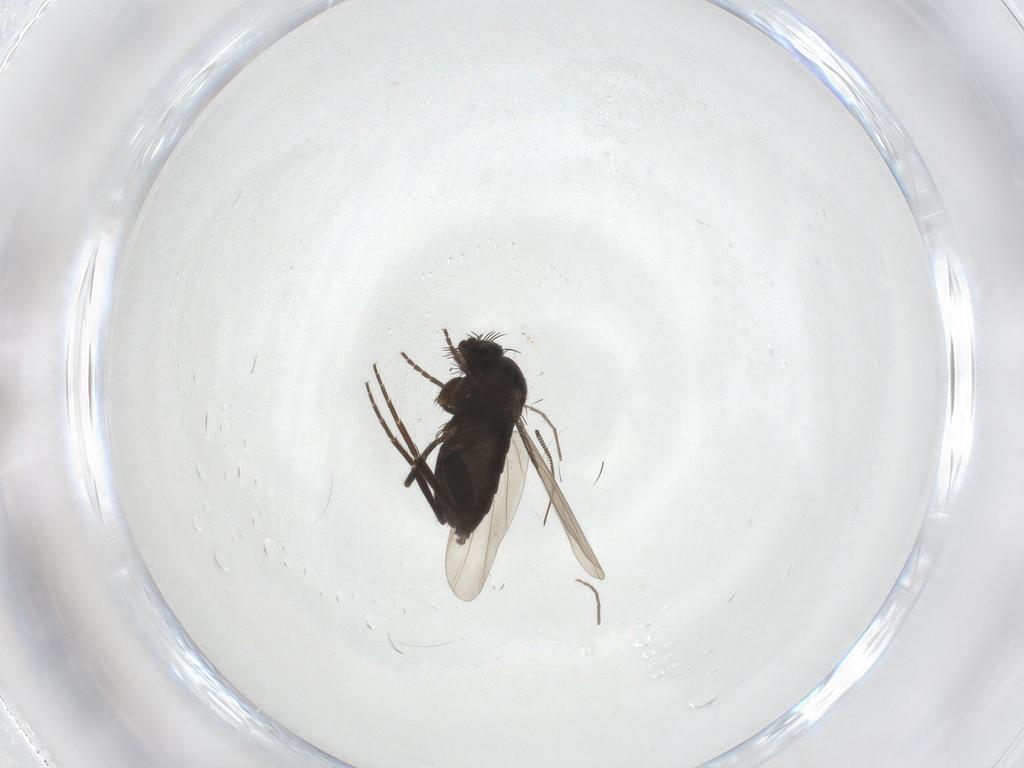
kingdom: Animalia
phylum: Arthropoda
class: Insecta
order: Diptera
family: Phoridae
